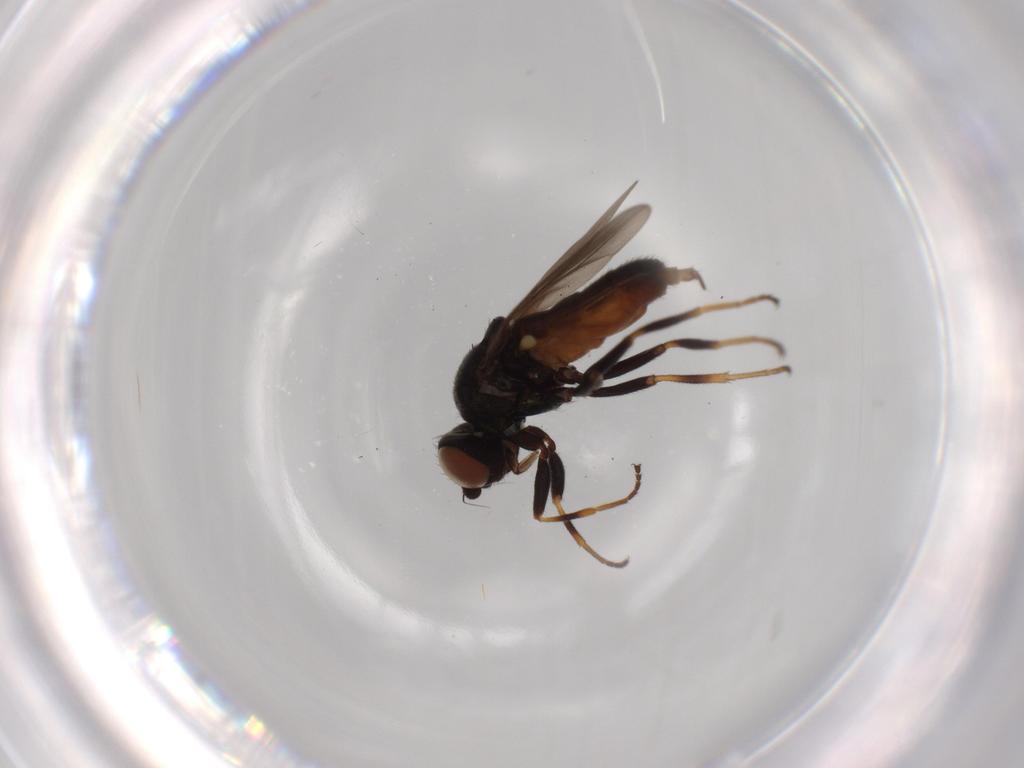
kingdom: Animalia
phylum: Arthropoda
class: Insecta
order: Diptera
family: Chloropidae
